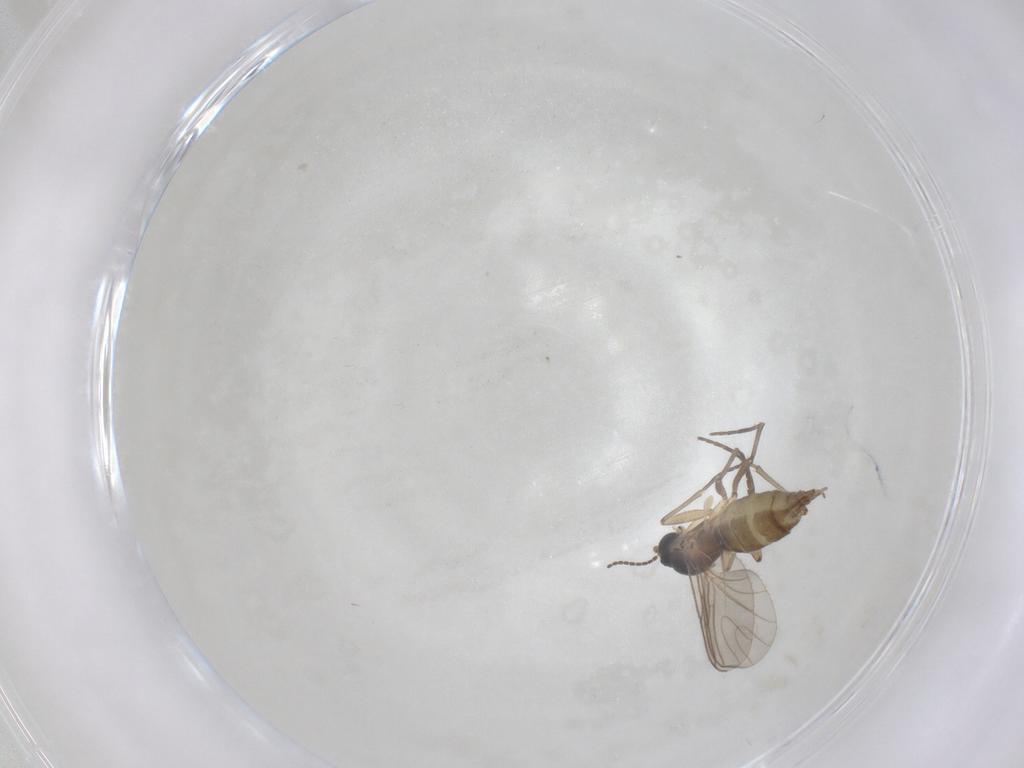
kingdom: Animalia
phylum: Arthropoda
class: Insecta
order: Diptera
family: Sciaridae
